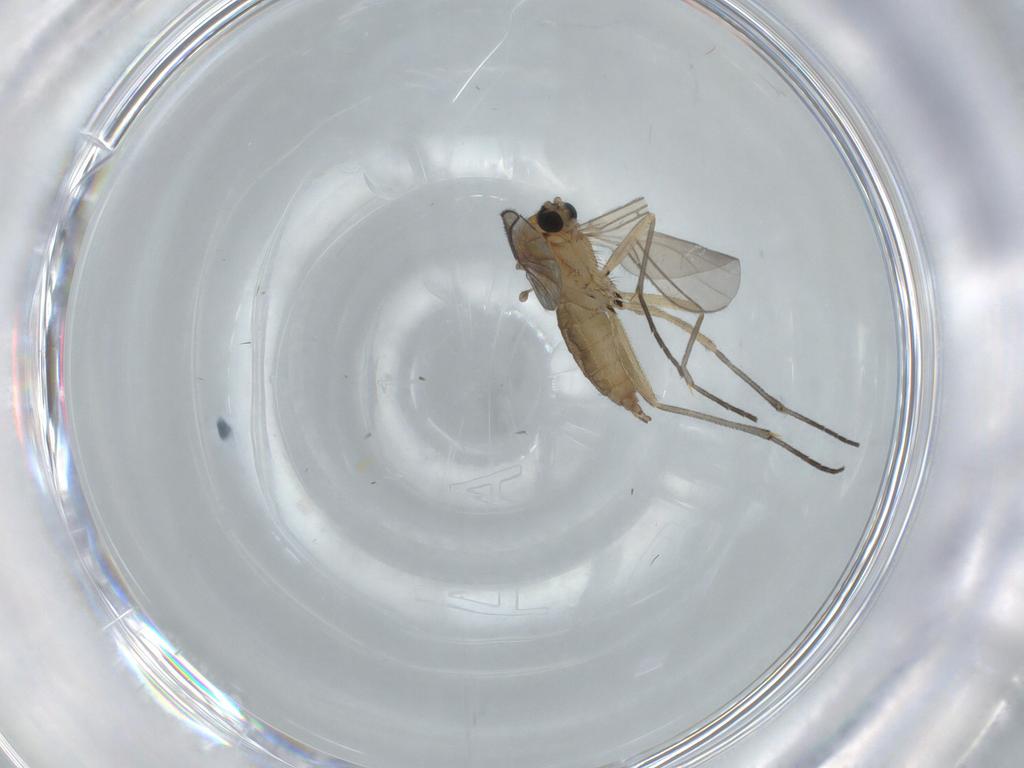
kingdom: Animalia
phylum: Arthropoda
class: Insecta
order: Diptera
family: Sciaridae
